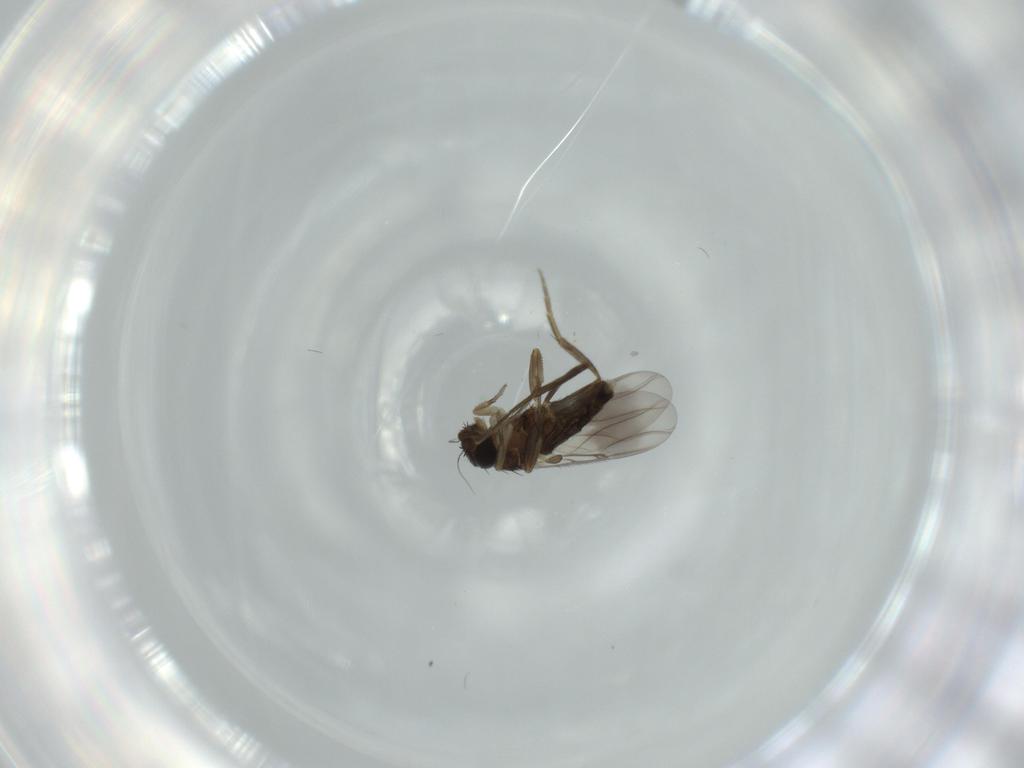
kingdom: Animalia
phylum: Arthropoda
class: Insecta
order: Diptera
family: Phoridae
